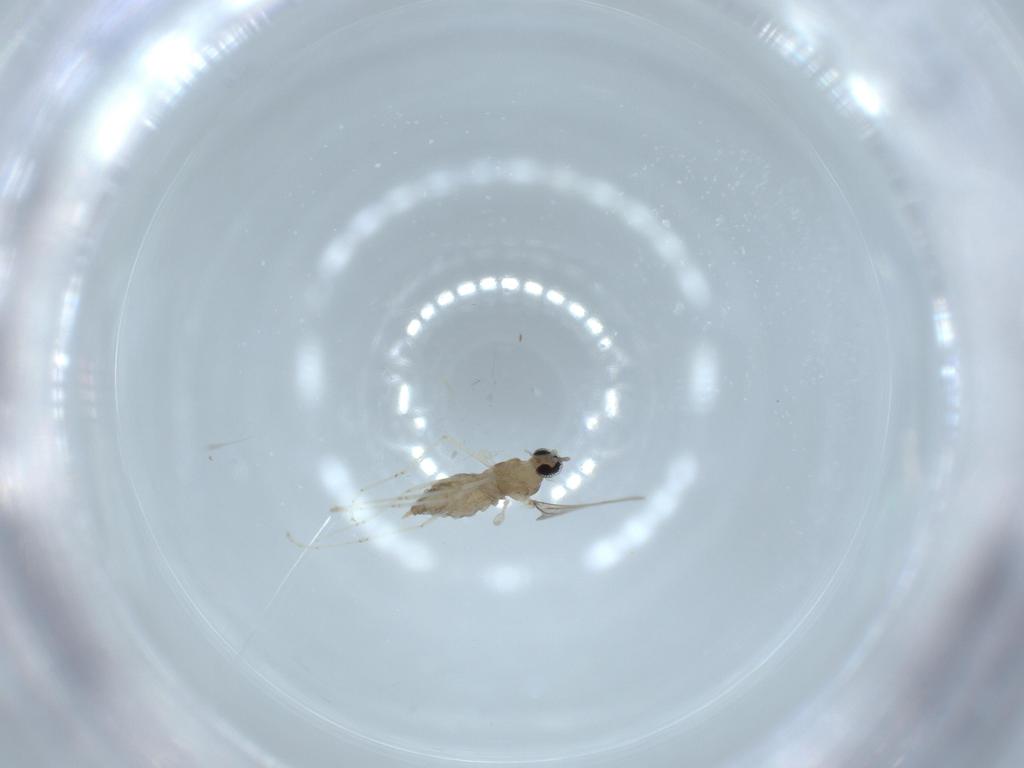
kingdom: Animalia
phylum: Arthropoda
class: Insecta
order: Diptera
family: Cecidomyiidae
